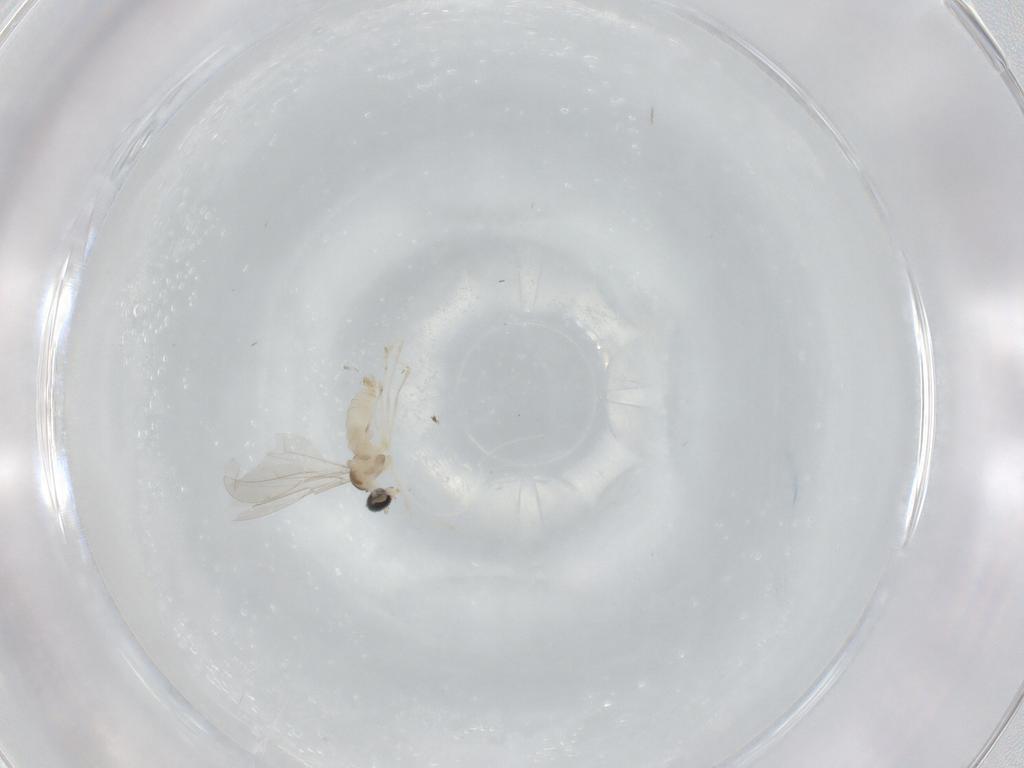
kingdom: Animalia
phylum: Arthropoda
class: Insecta
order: Diptera
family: Cecidomyiidae
